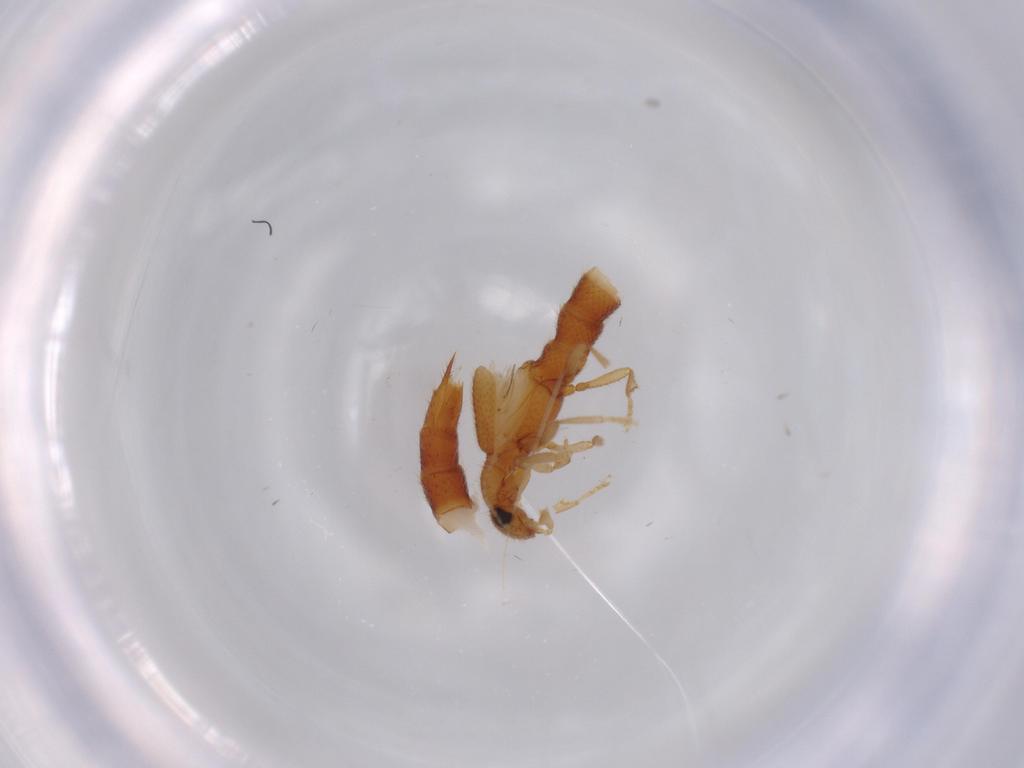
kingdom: Animalia
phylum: Arthropoda
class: Insecta
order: Coleoptera
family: Staphylinidae
